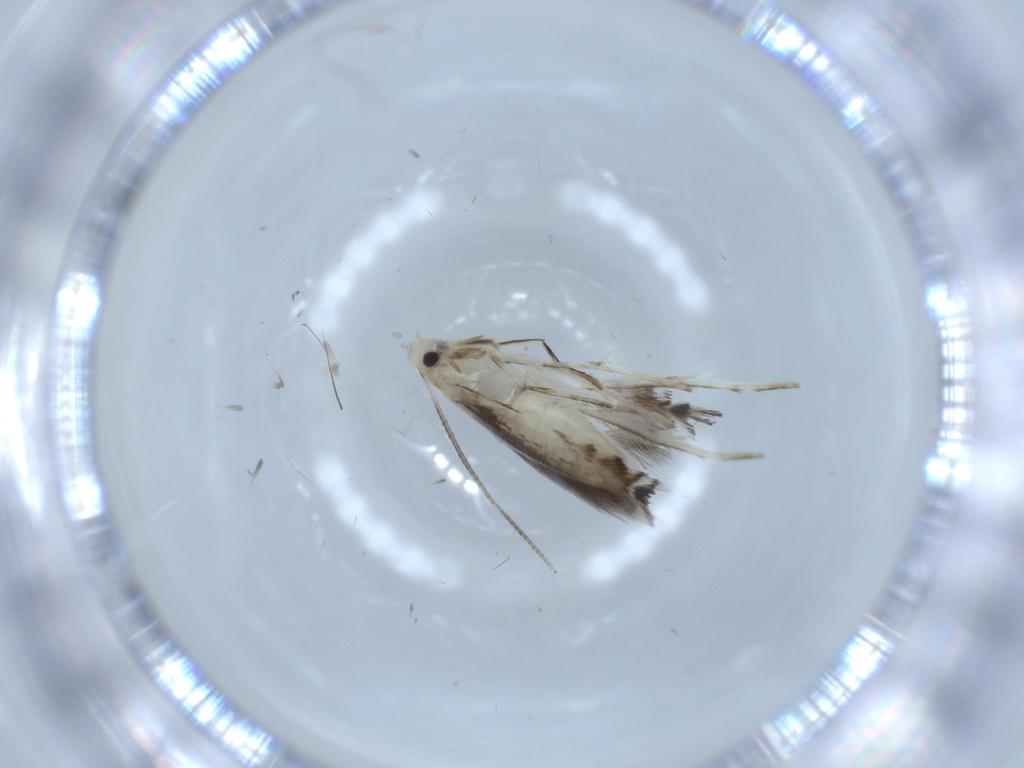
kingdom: Animalia
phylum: Arthropoda
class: Insecta
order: Lepidoptera
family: Gracillariidae
